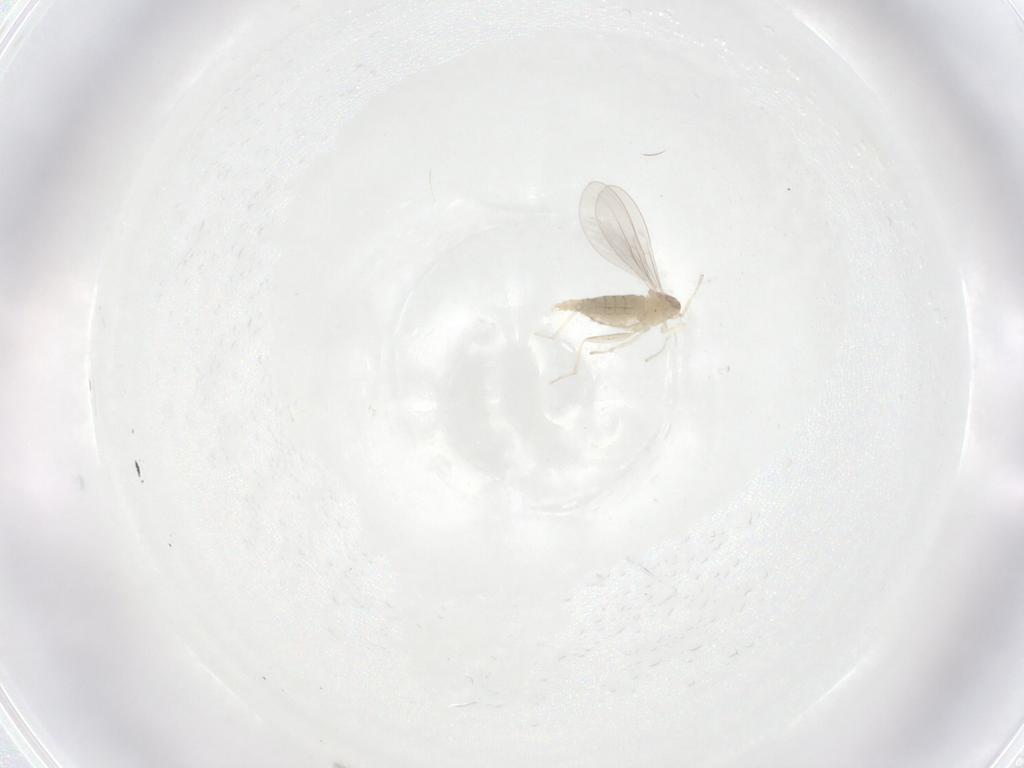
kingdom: Animalia
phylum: Arthropoda
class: Insecta
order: Diptera
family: Cecidomyiidae
